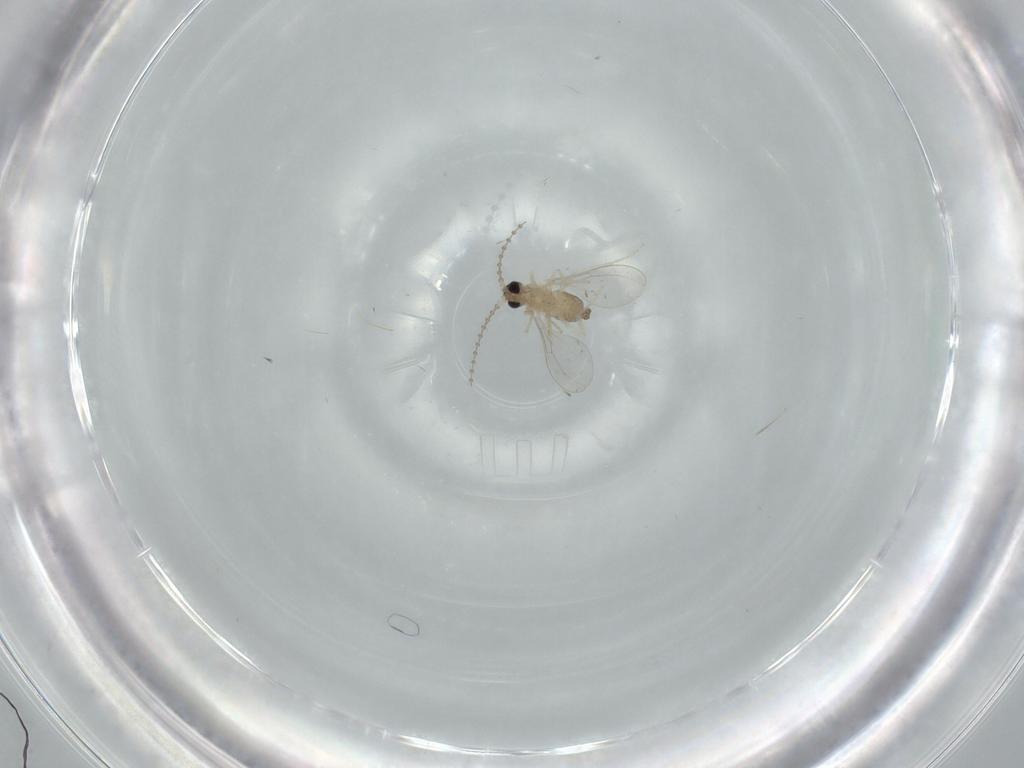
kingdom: Animalia
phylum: Arthropoda
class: Insecta
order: Diptera
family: Cecidomyiidae
